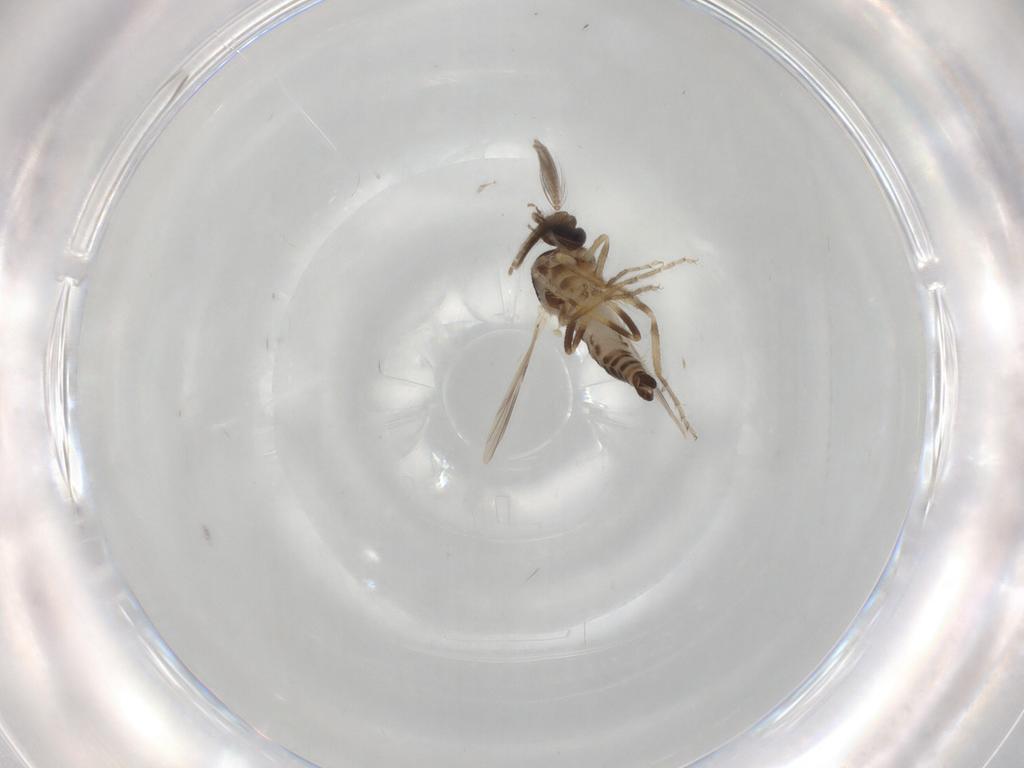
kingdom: Animalia
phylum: Arthropoda
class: Insecta
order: Diptera
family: Ceratopogonidae
